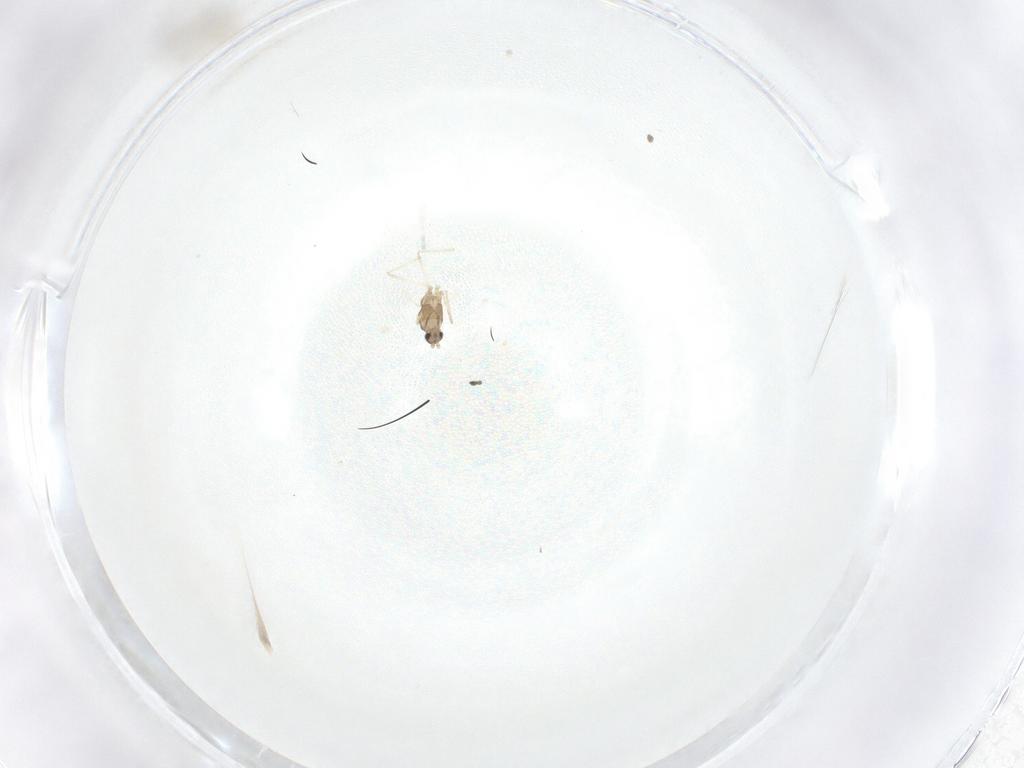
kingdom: Animalia
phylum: Arthropoda
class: Insecta
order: Diptera
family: Cecidomyiidae
